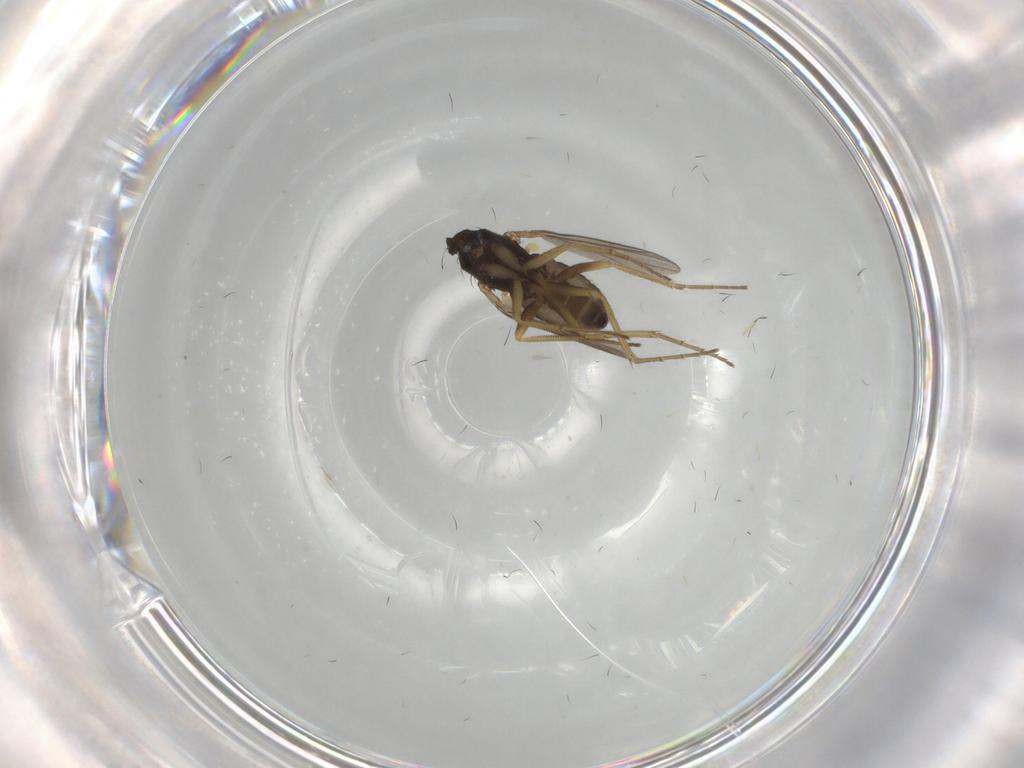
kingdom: Animalia
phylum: Arthropoda
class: Insecta
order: Diptera
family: Dolichopodidae
